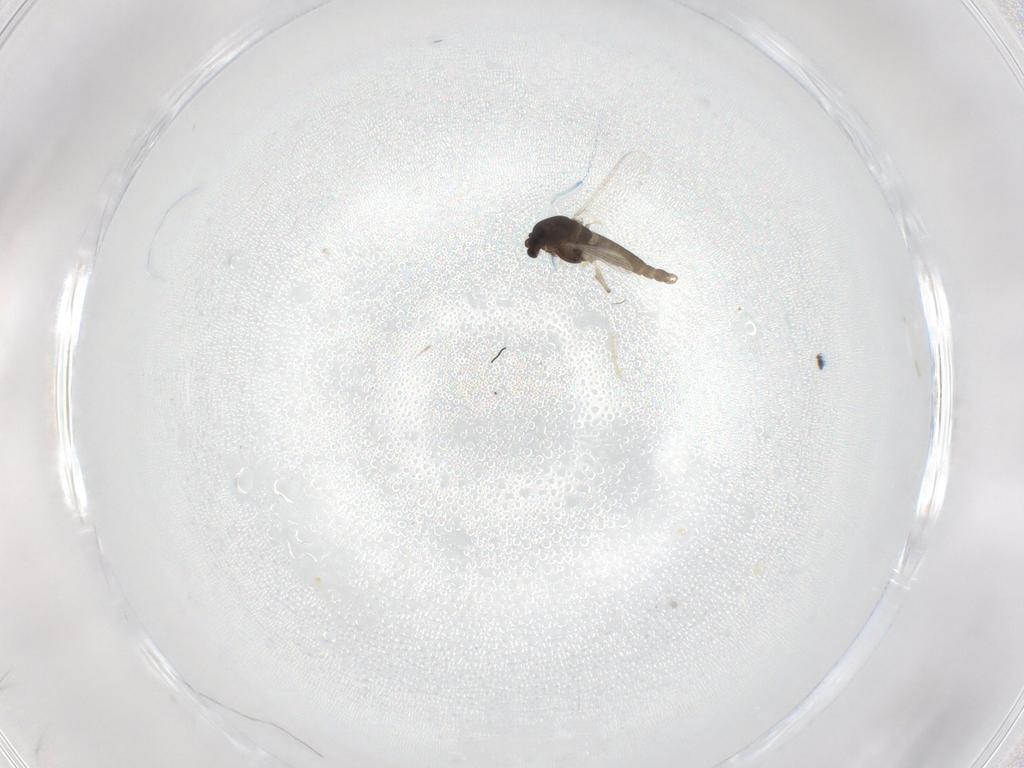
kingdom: Animalia
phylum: Arthropoda
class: Insecta
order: Diptera
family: Chironomidae
